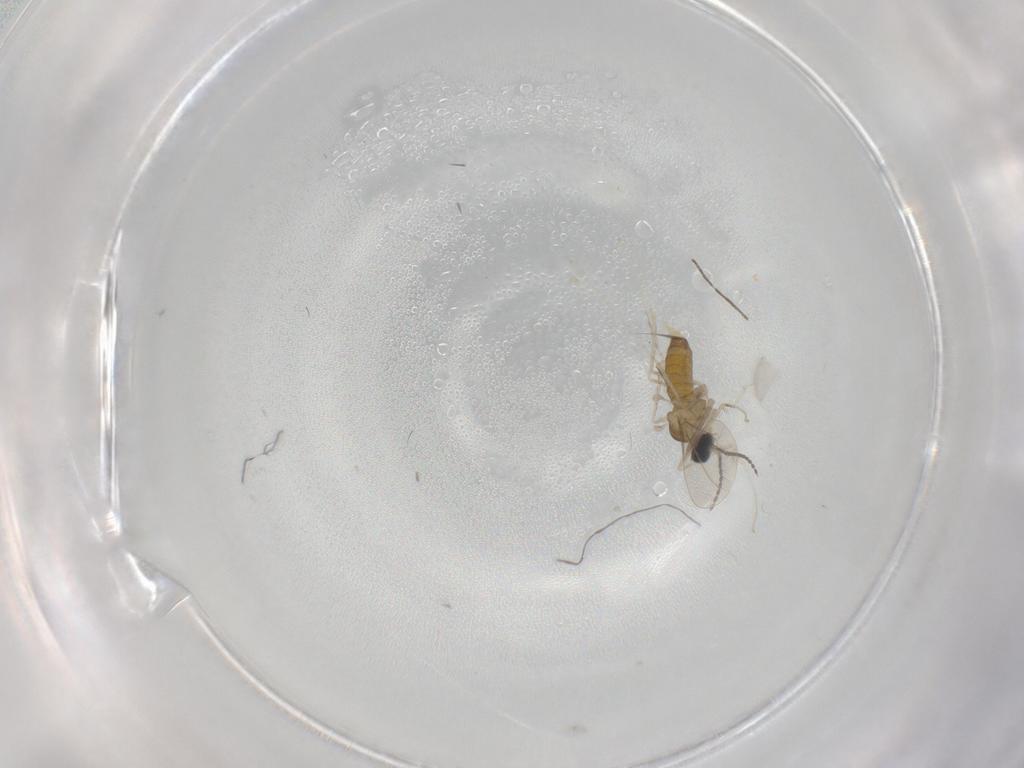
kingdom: Animalia
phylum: Arthropoda
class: Insecta
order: Diptera
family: Cecidomyiidae
